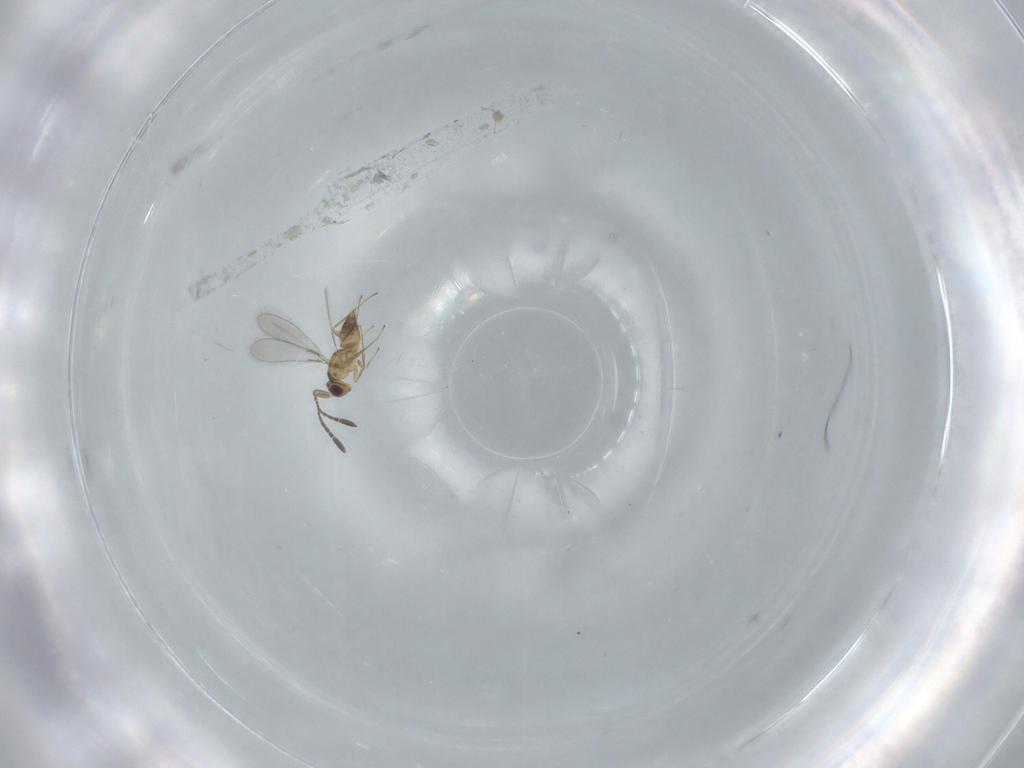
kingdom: Animalia
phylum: Arthropoda
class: Insecta
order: Hymenoptera
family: Mymaridae
